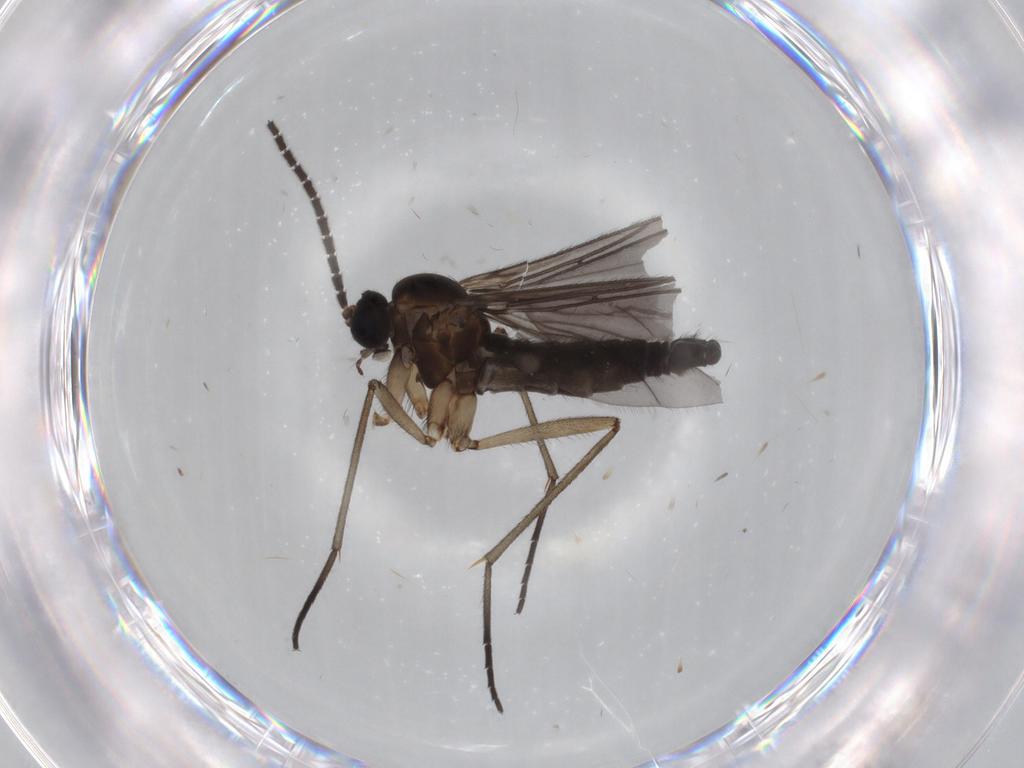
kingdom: Animalia
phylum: Arthropoda
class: Insecta
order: Diptera
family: Sciaridae
